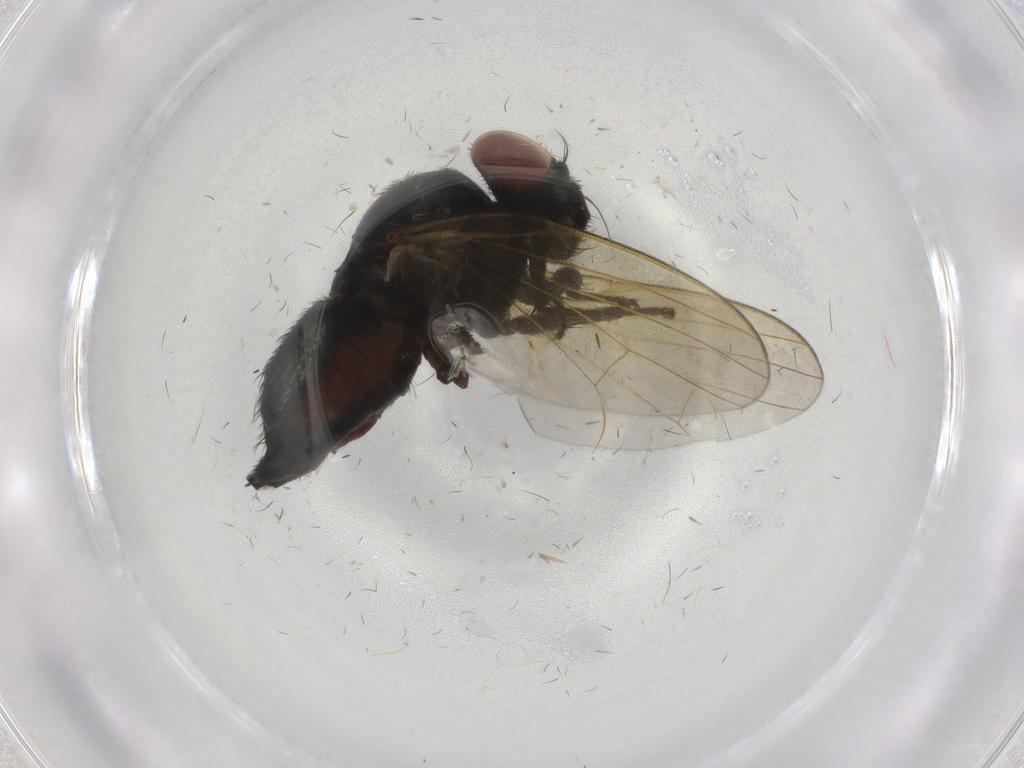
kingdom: Animalia
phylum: Arthropoda
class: Insecta
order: Diptera
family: Lonchaeidae
